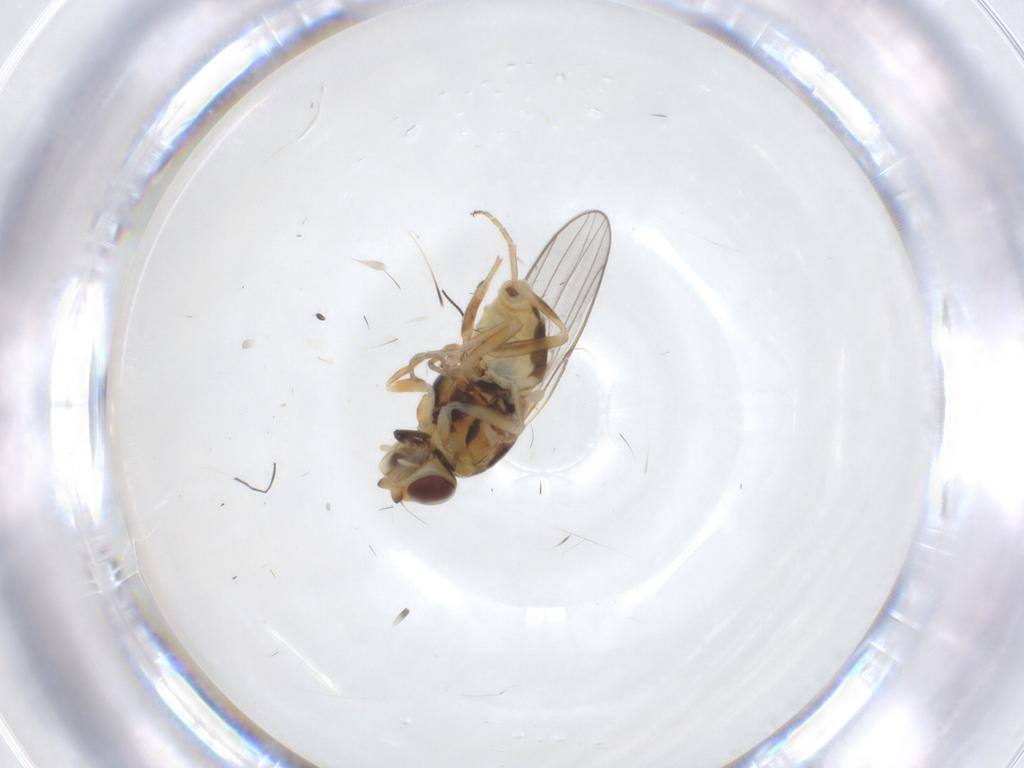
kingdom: Animalia
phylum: Arthropoda
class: Insecta
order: Diptera
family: Chloropidae
